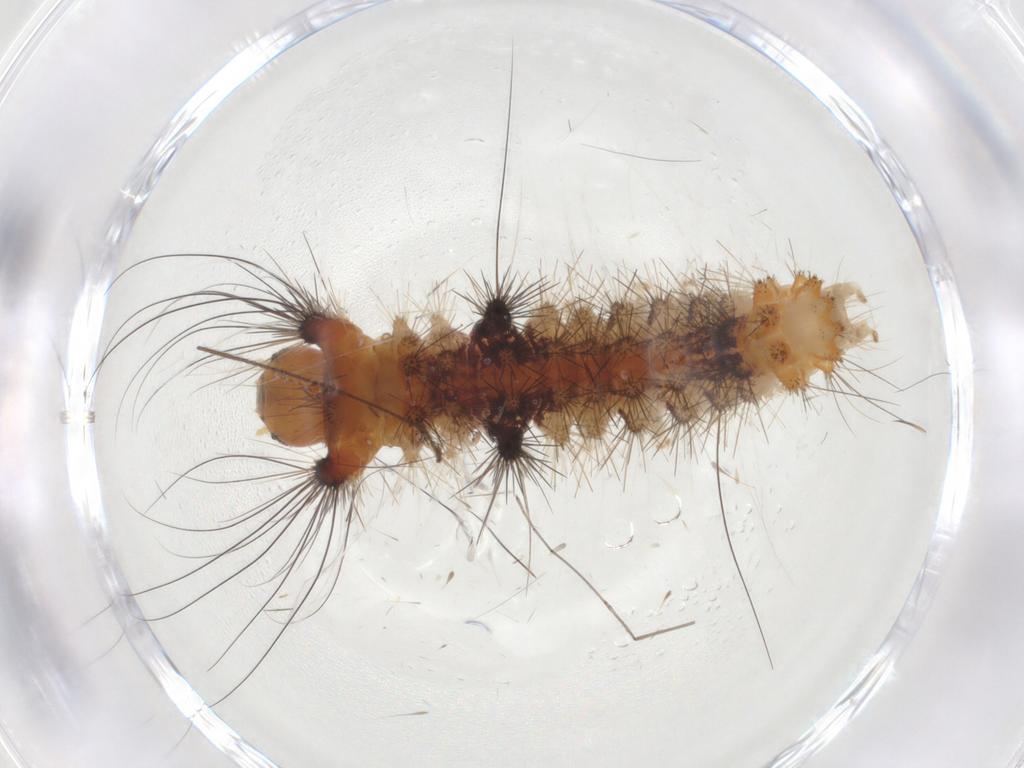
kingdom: Animalia
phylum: Arthropoda
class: Insecta
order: Lepidoptera
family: Erebidae
